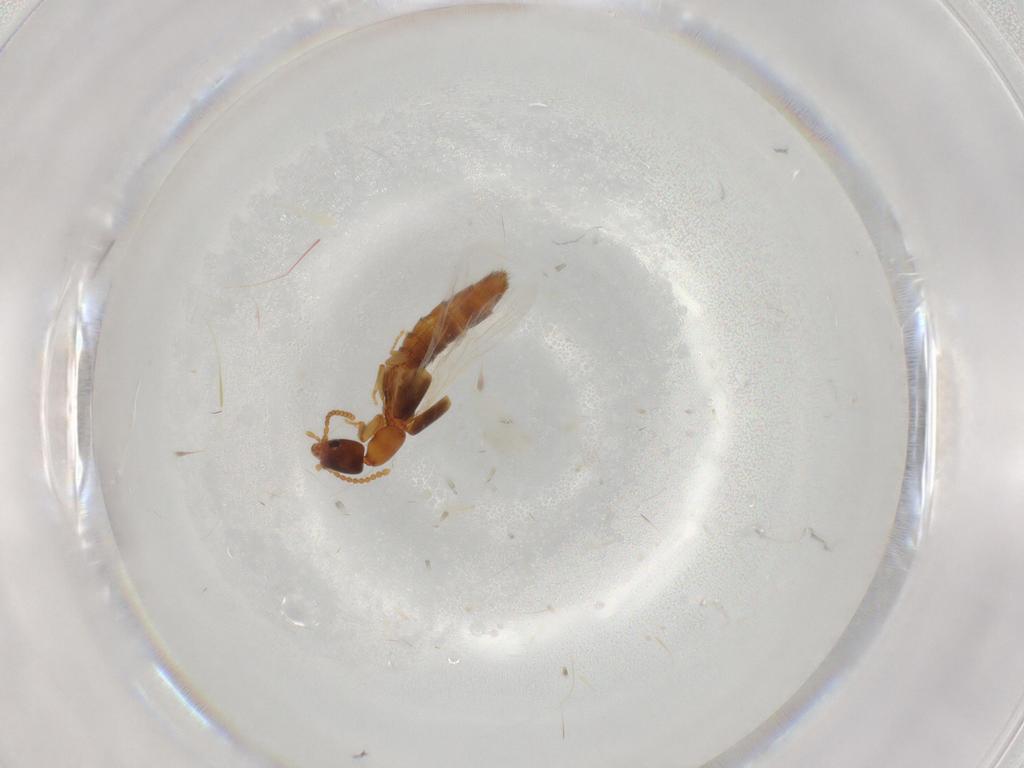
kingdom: Animalia
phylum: Arthropoda
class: Insecta
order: Coleoptera
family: Staphylinidae
